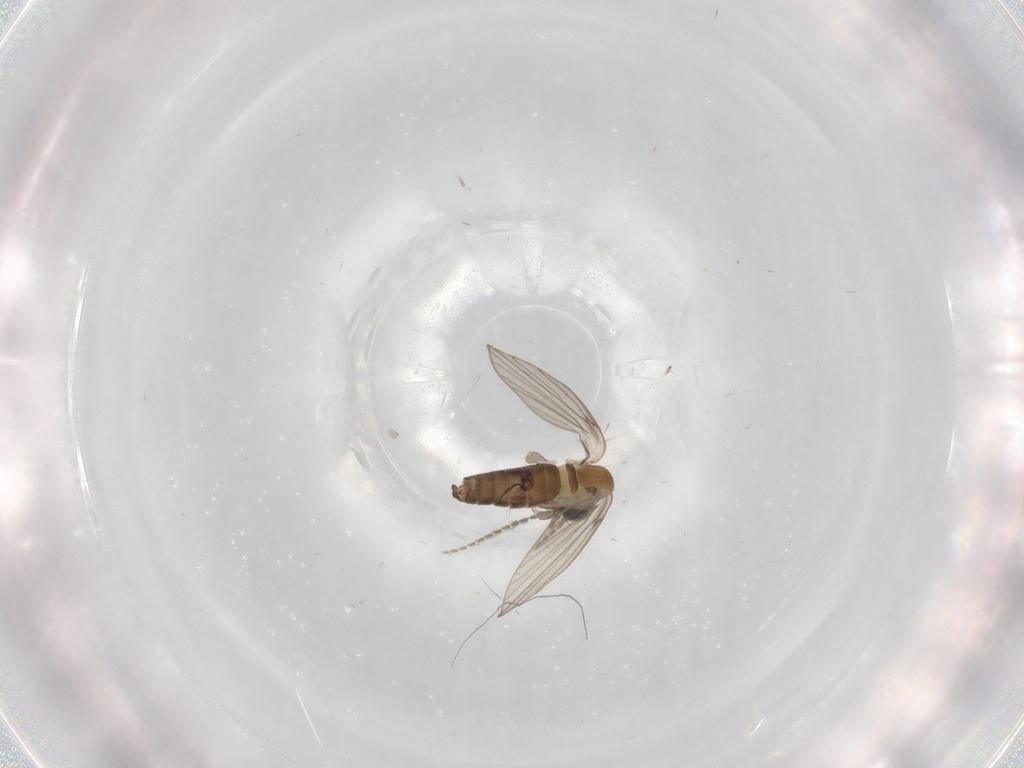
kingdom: Animalia
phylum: Arthropoda
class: Insecta
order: Diptera
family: Psychodidae
